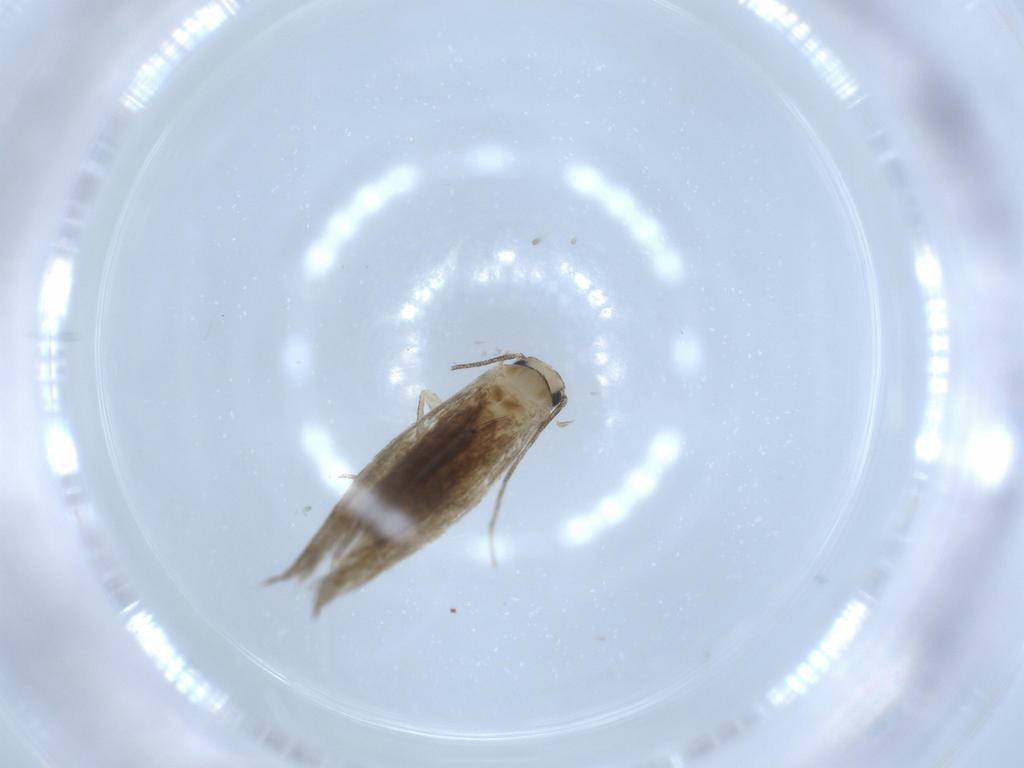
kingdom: Animalia
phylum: Arthropoda
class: Insecta
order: Lepidoptera
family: Tineidae
